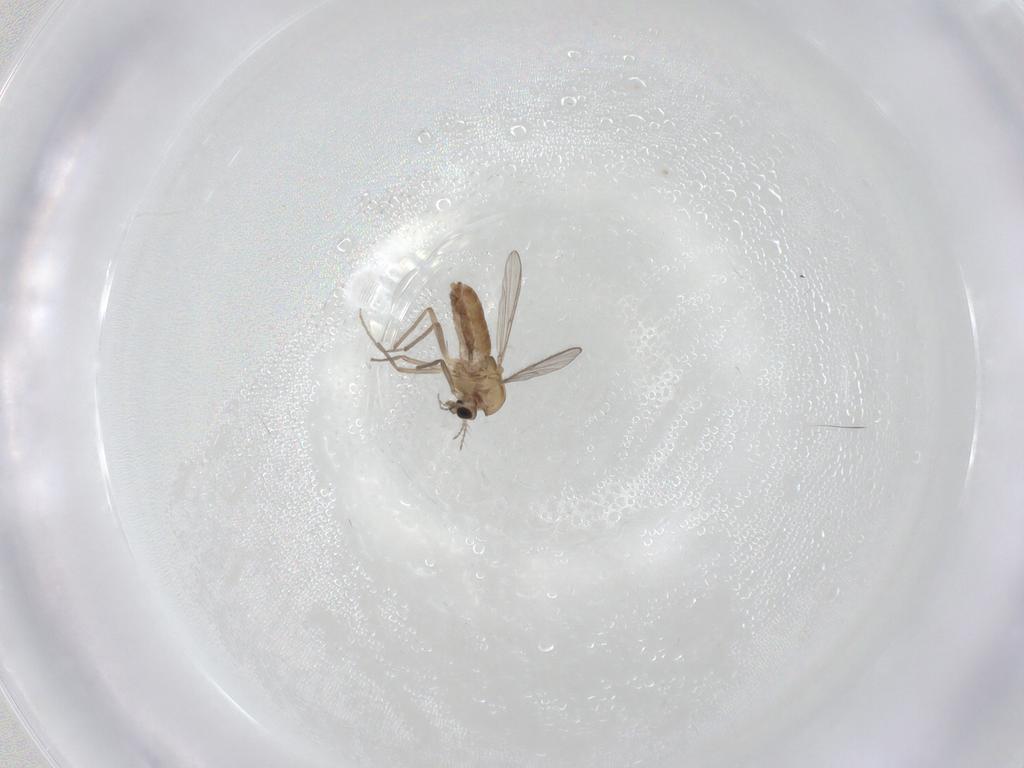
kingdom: Animalia
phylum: Arthropoda
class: Insecta
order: Diptera
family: Chironomidae
